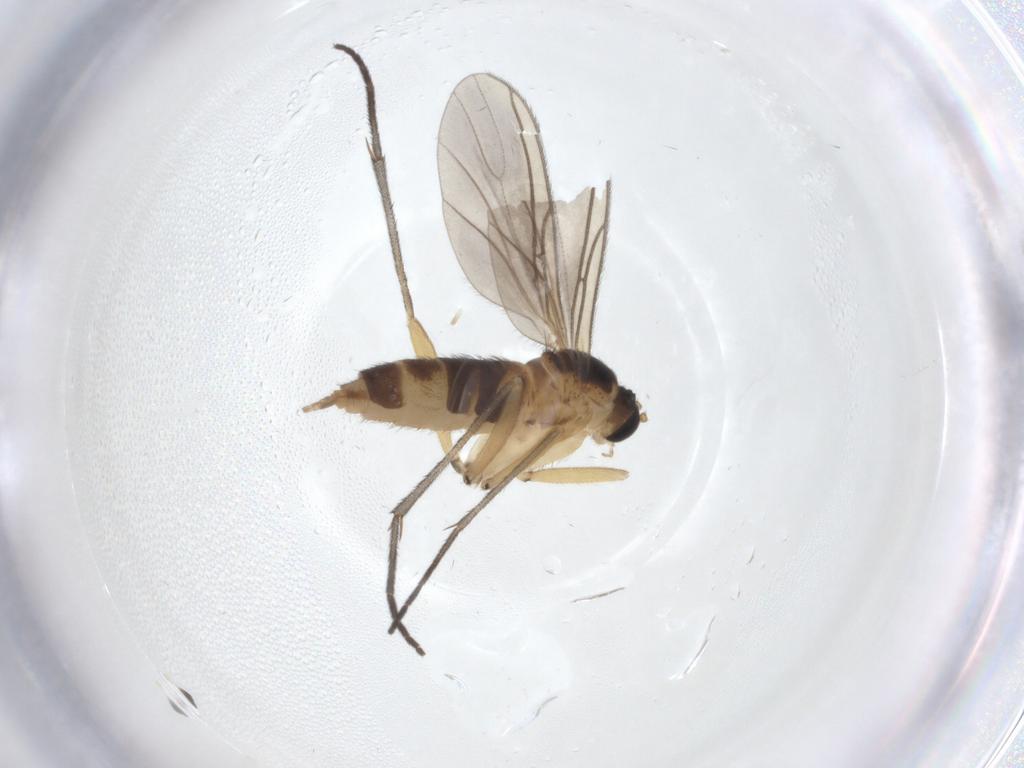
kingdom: Animalia
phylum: Arthropoda
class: Insecta
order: Diptera
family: Sciaridae
